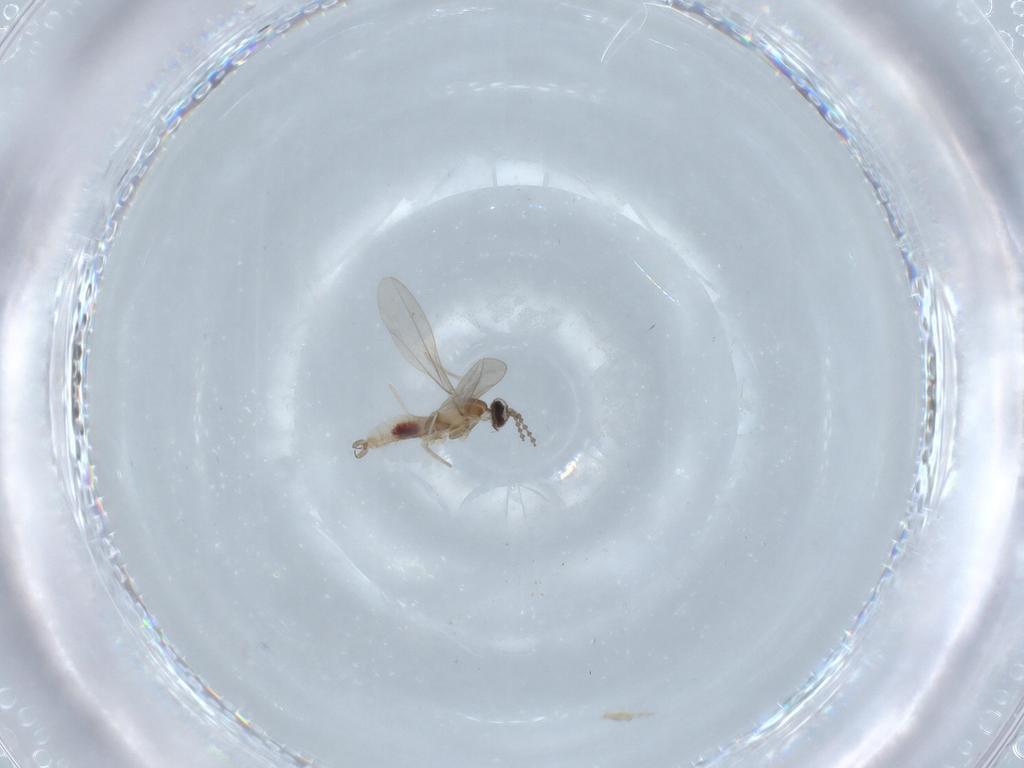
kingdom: Animalia
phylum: Arthropoda
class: Insecta
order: Diptera
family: Cecidomyiidae
